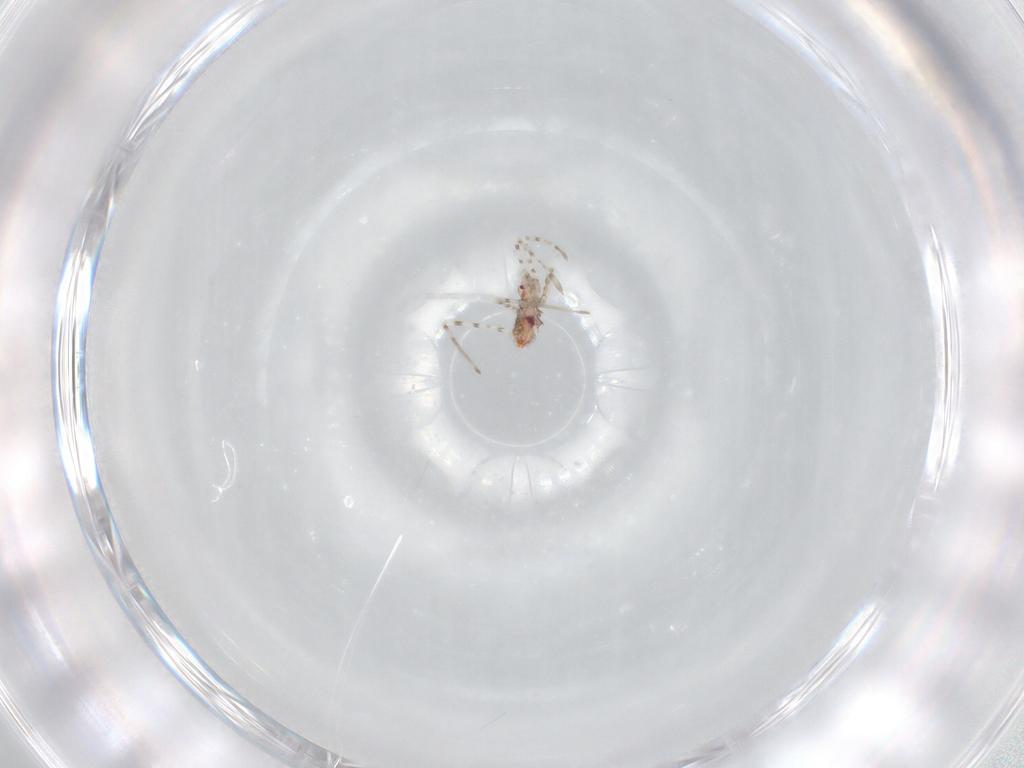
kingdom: Animalia
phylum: Arthropoda
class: Insecta
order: Hemiptera
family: Reduviidae
